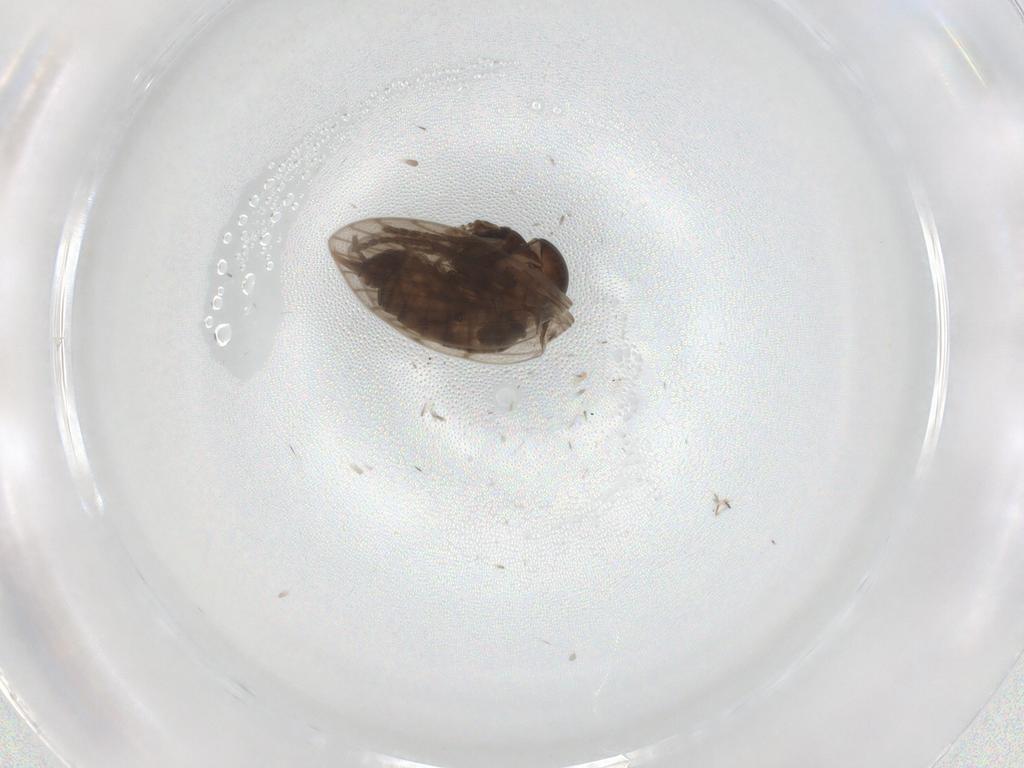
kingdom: Animalia
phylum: Arthropoda
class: Insecta
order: Diptera
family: Psychodidae
